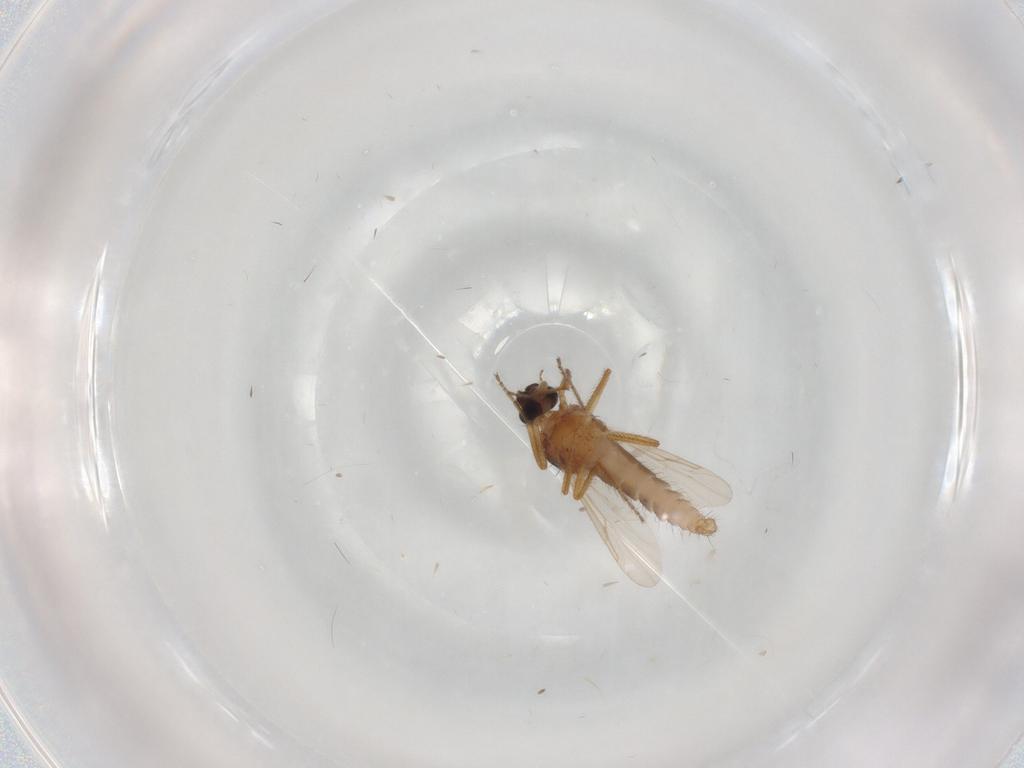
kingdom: Animalia
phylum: Arthropoda
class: Insecta
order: Diptera
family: Ceratopogonidae
